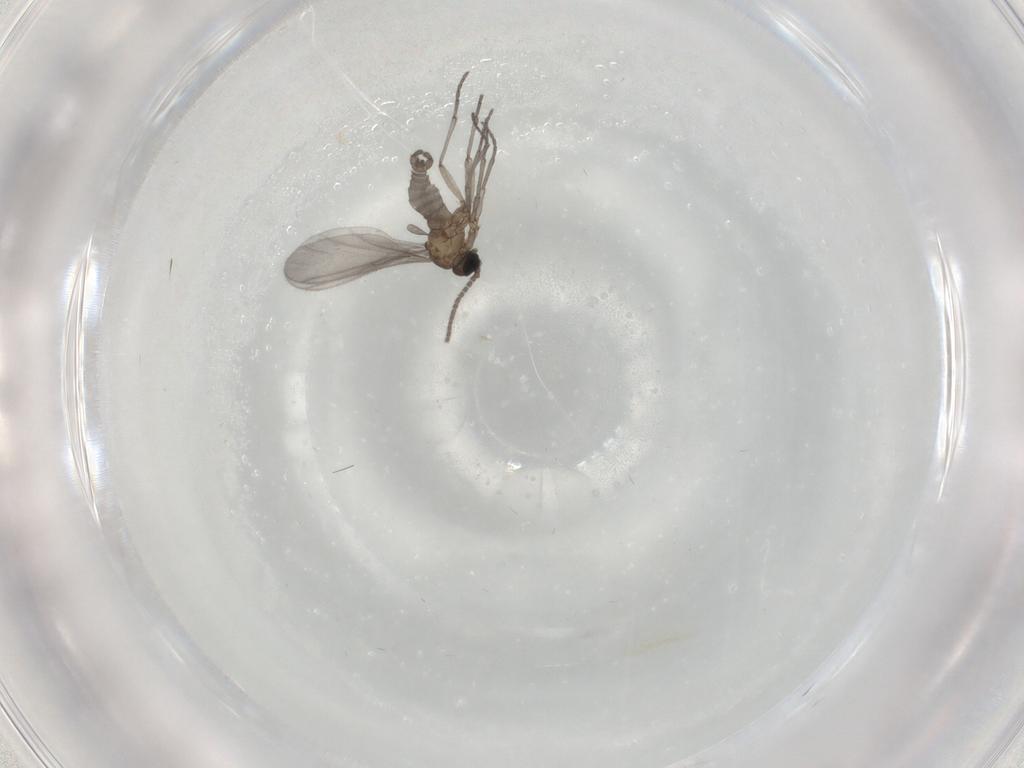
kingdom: Animalia
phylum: Arthropoda
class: Insecta
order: Diptera
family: Sciaridae
